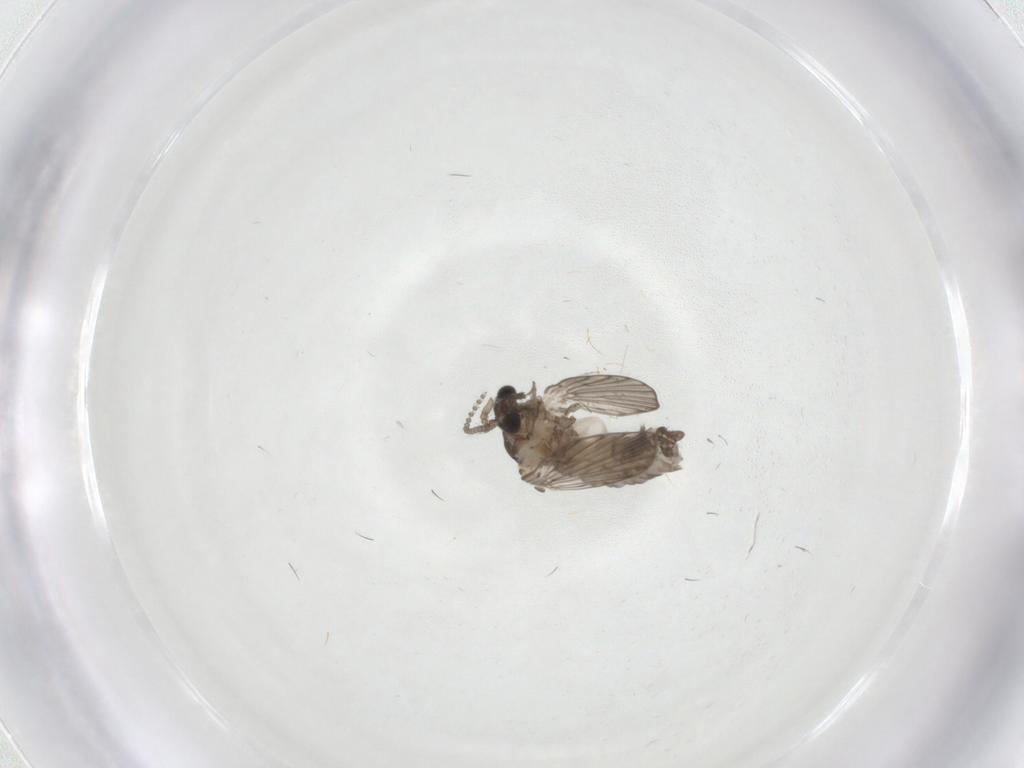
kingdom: Animalia
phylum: Arthropoda
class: Insecta
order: Diptera
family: Psychodidae
